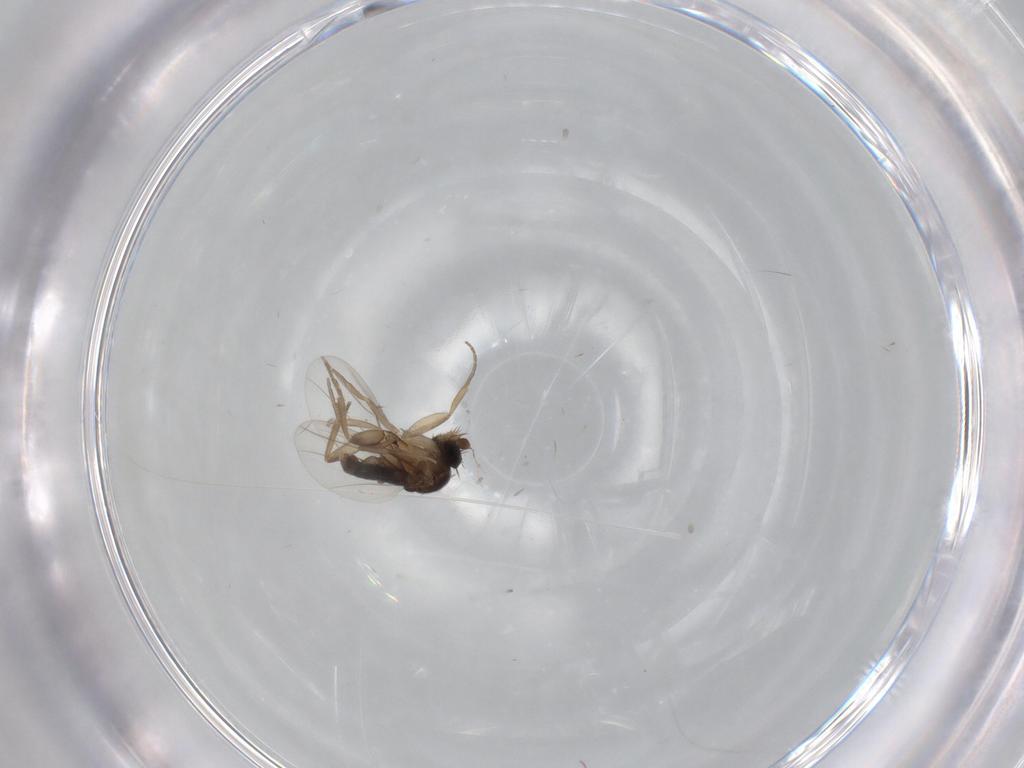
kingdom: Animalia
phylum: Arthropoda
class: Insecta
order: Diptera
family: Phoridae
